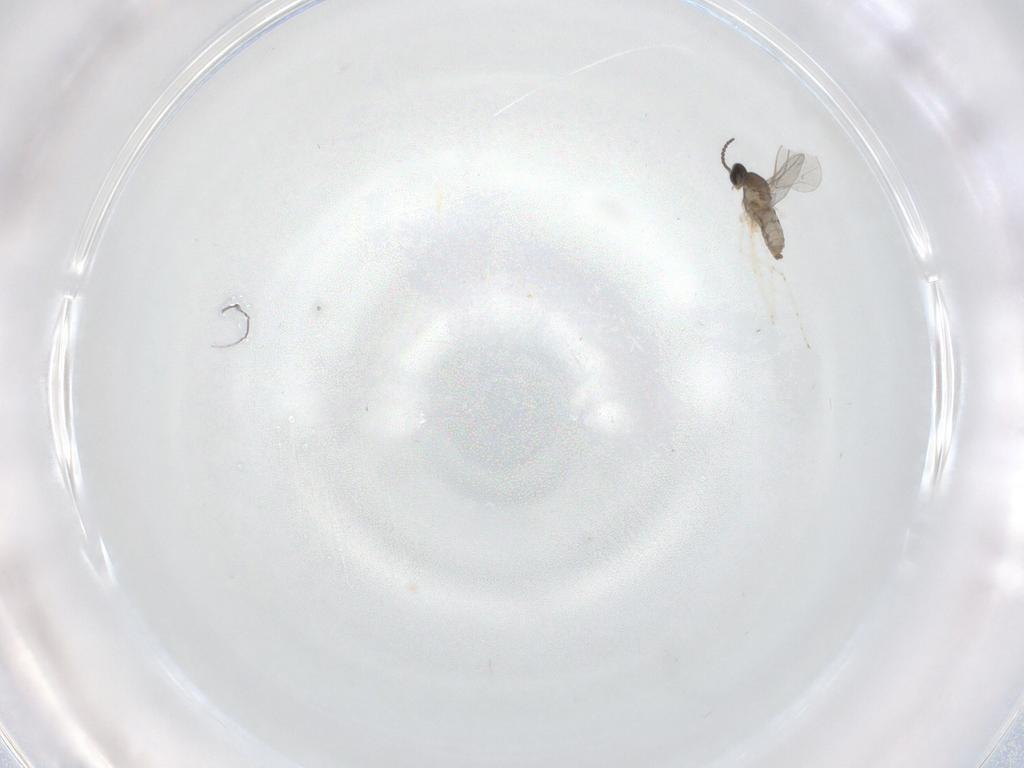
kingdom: Animalia
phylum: Arthropoda
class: Insecta
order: Diptera
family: Cecidomyiidae
